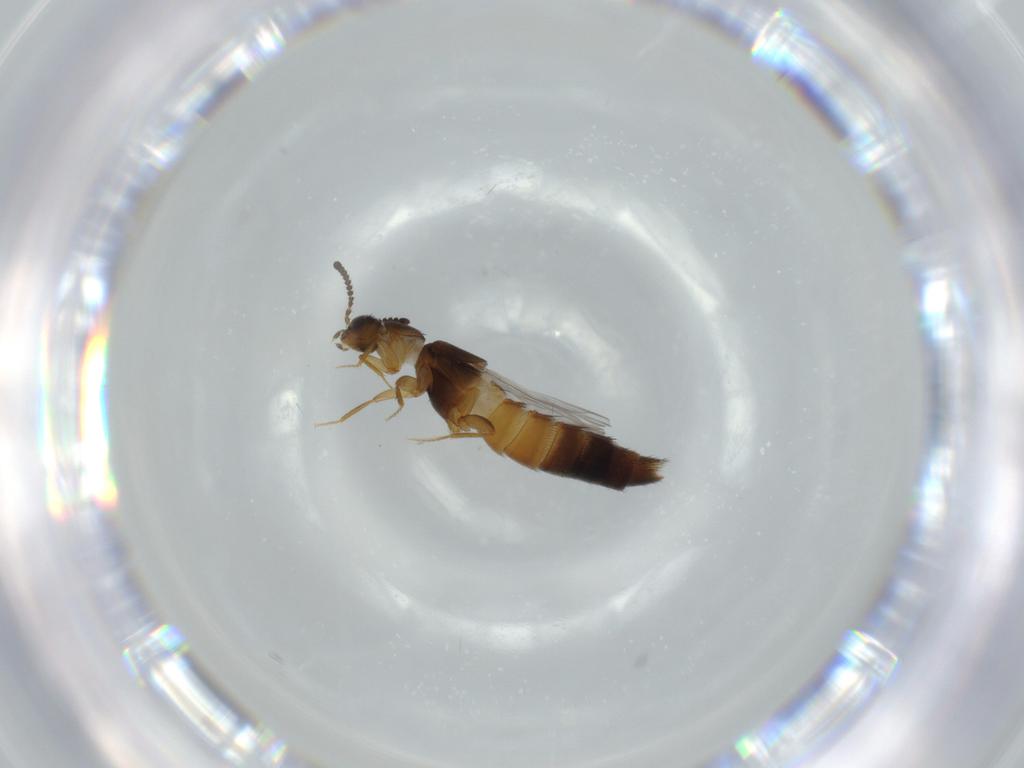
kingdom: Animalia
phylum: Arthropoda
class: Insecta
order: Coleoptera
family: Staphylinidae
